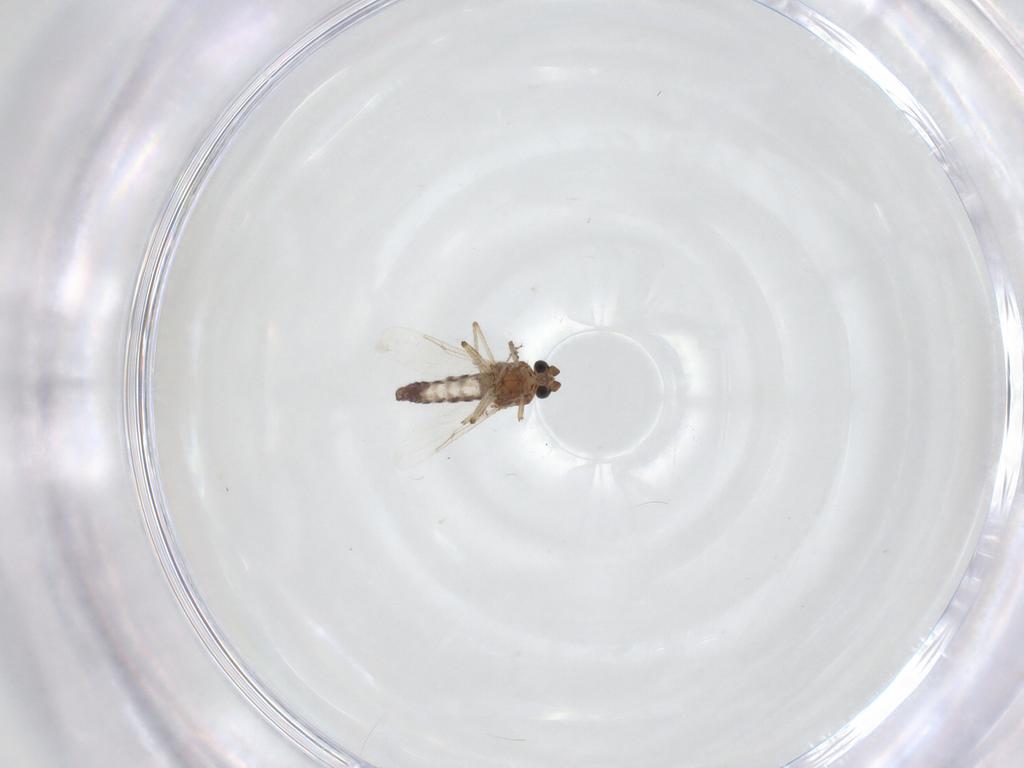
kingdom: Animalia
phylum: Arthropoda
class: Insecta
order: Diptera
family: Ceratopogonidae
